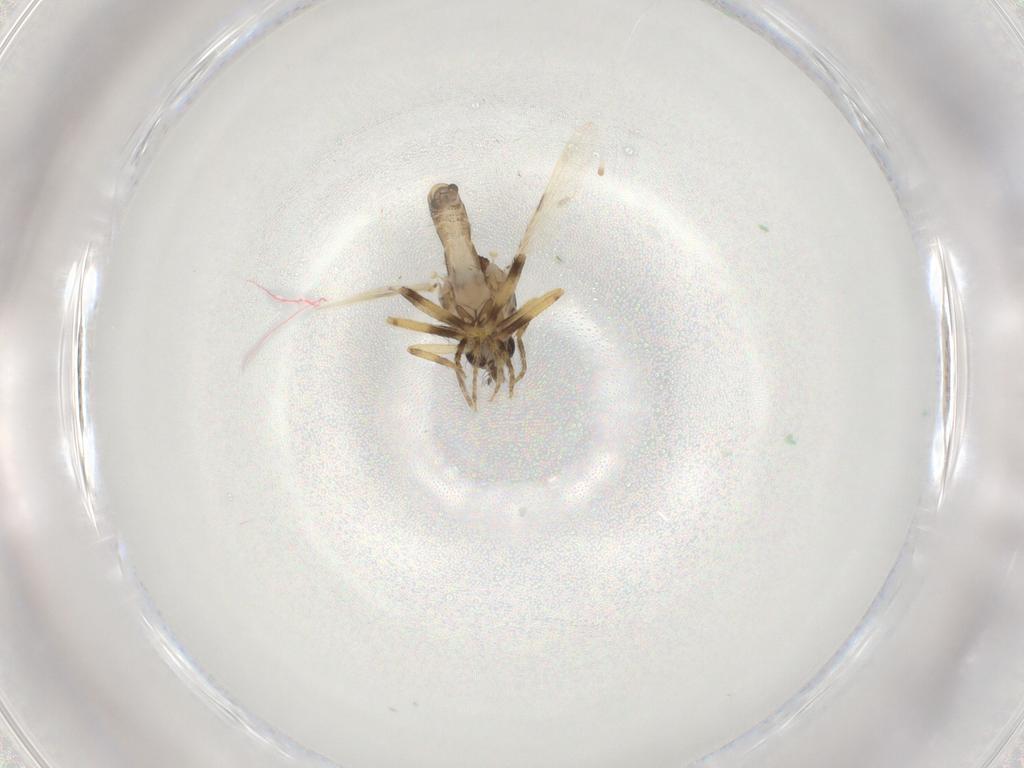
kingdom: Animalia
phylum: Arthropoda
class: Insecta
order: Diptera
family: Ceratopogonidae
